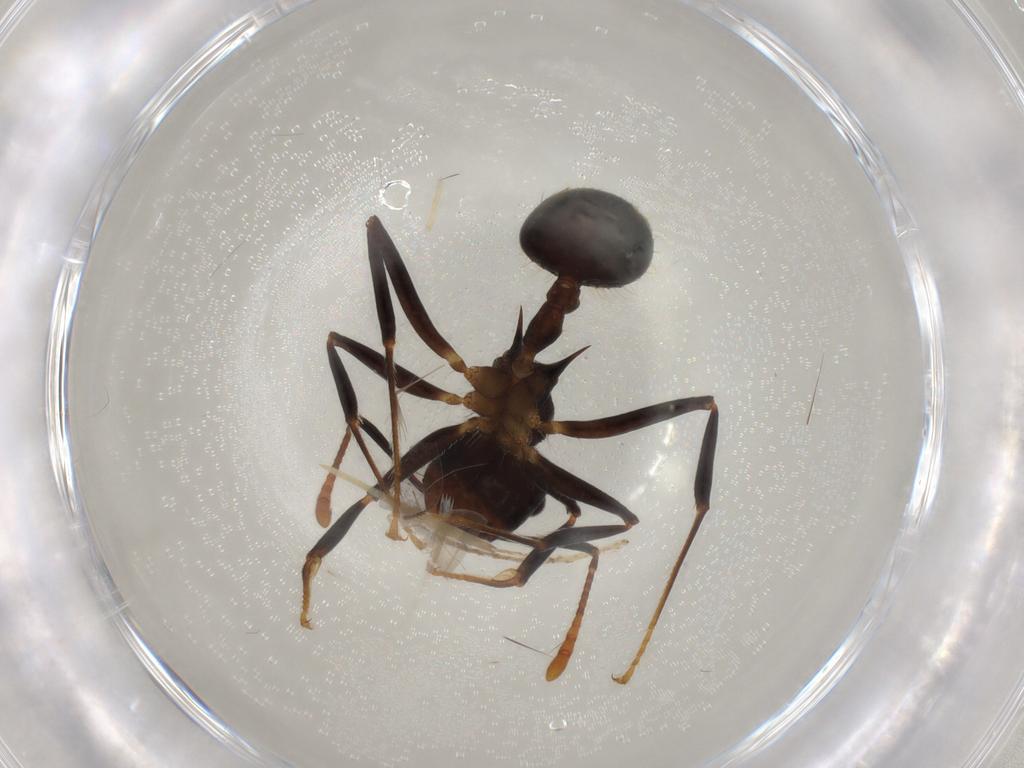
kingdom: Animalia
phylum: Arthropoda
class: Insecta
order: Hymenoptera
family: Formicidae
